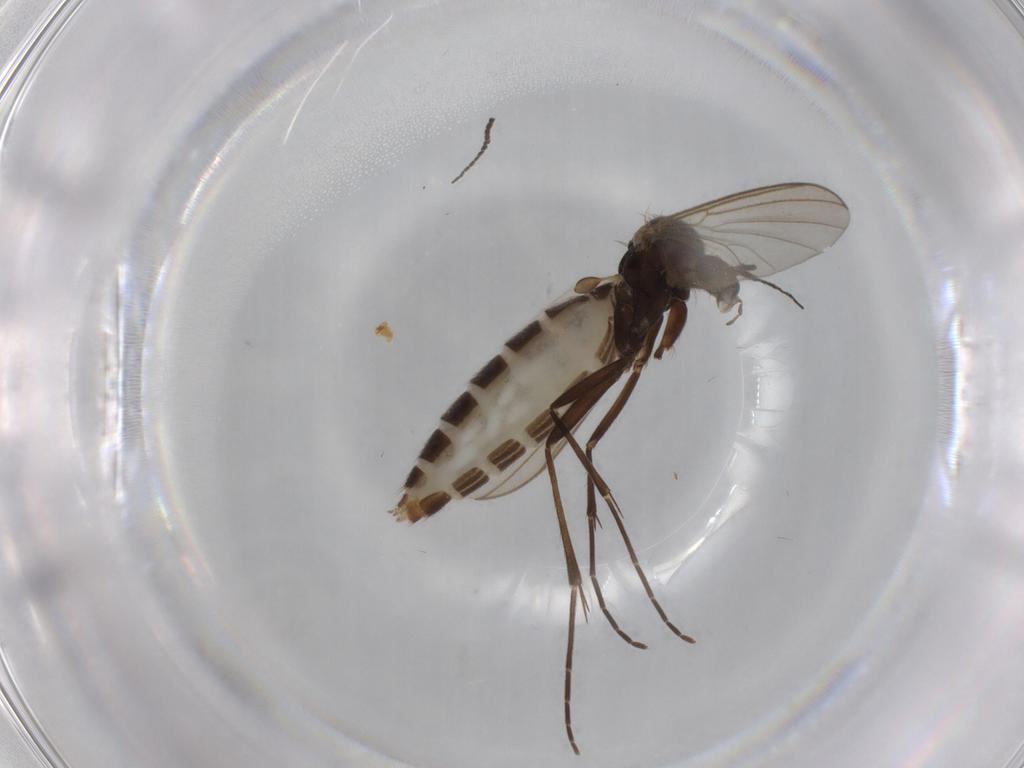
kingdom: Animalia
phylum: Arthropoda
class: Insecta
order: Diptera
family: Chironomidae
